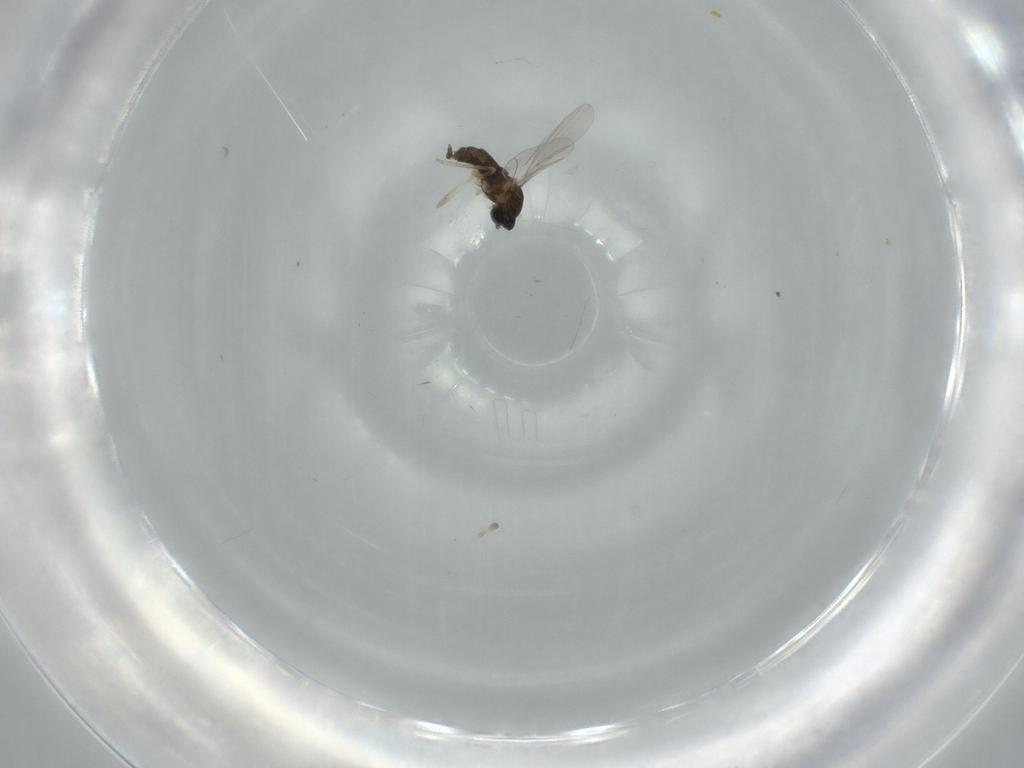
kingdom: Animalia
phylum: Arthropoda
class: Insecta
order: Diptera
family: Cecidomyiidae
